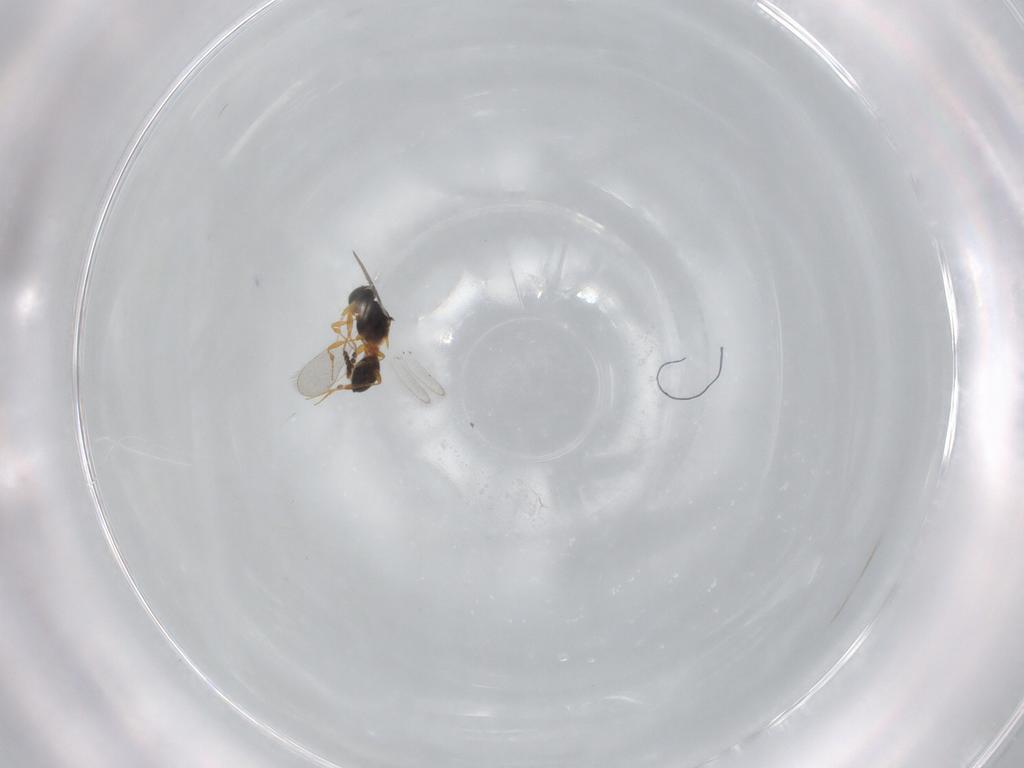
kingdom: Animalia
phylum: Arthropoda
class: Insecta
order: Hymenoptera
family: Platygastridae
